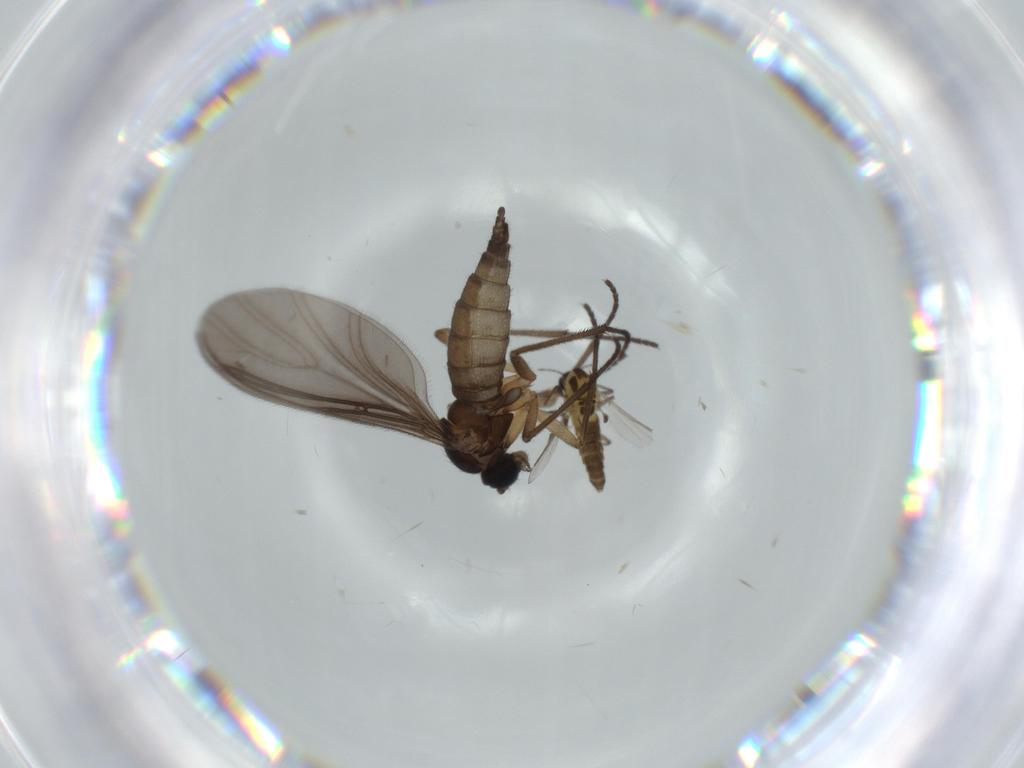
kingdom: Animalia
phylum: Arthropoda
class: Insecta
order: Diptera
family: Chironomidae
